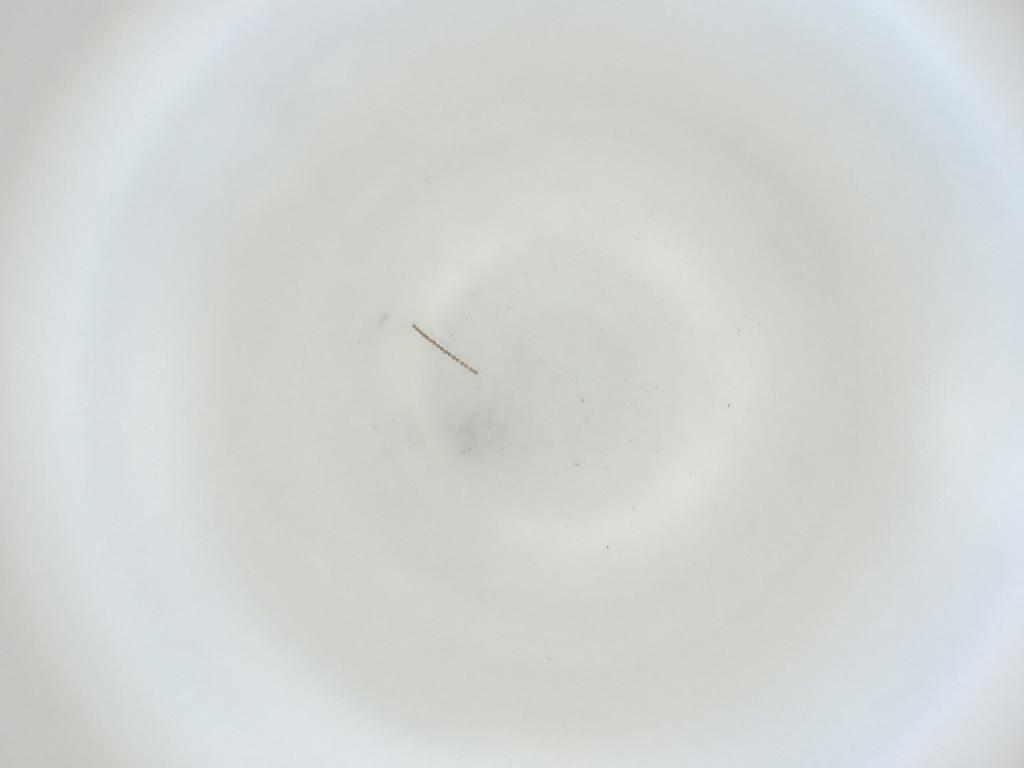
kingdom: Animalia
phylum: Arthropoda
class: Insecta
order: Diptera
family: Cecidomyiidae
